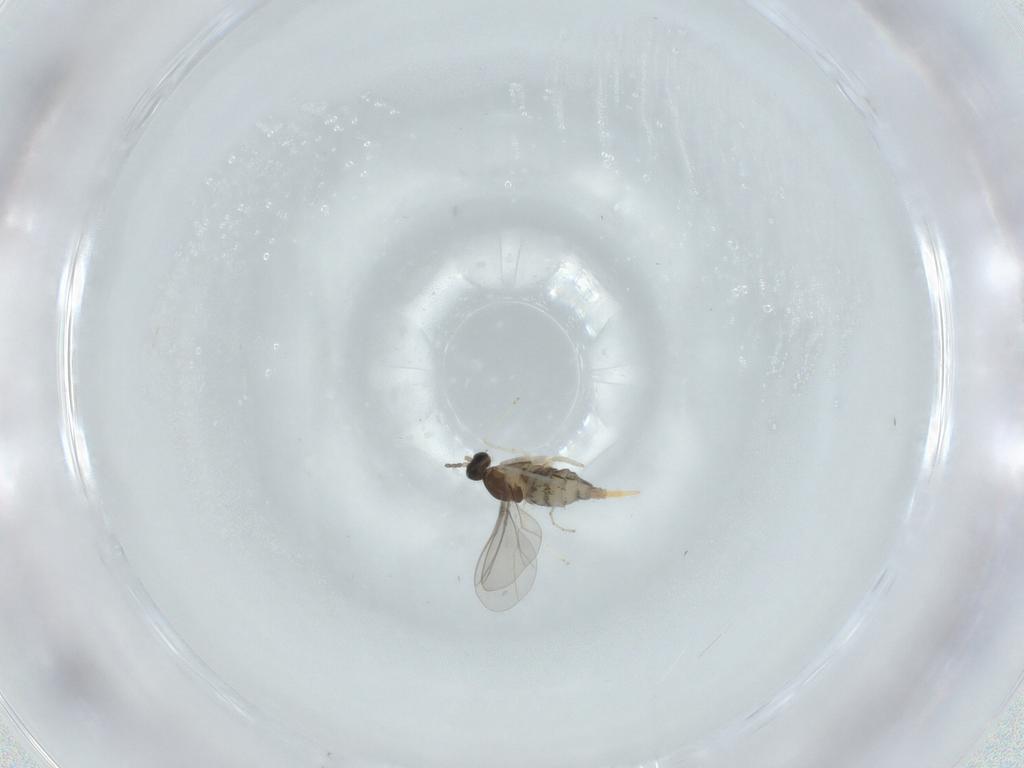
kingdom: Animalia
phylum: Arthropoda
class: Insecta
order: Diptera
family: Cecidomyiidae
